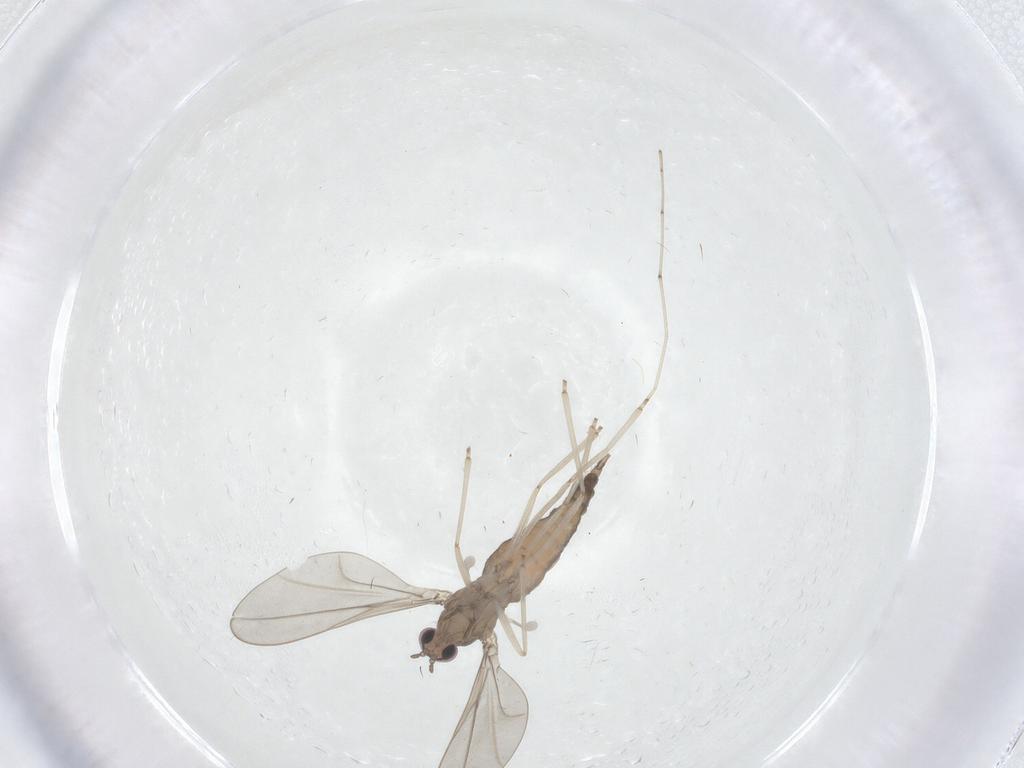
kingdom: Animalia
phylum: Arthropoda
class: Insecta
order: Diptera
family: Cecidomyiidae
